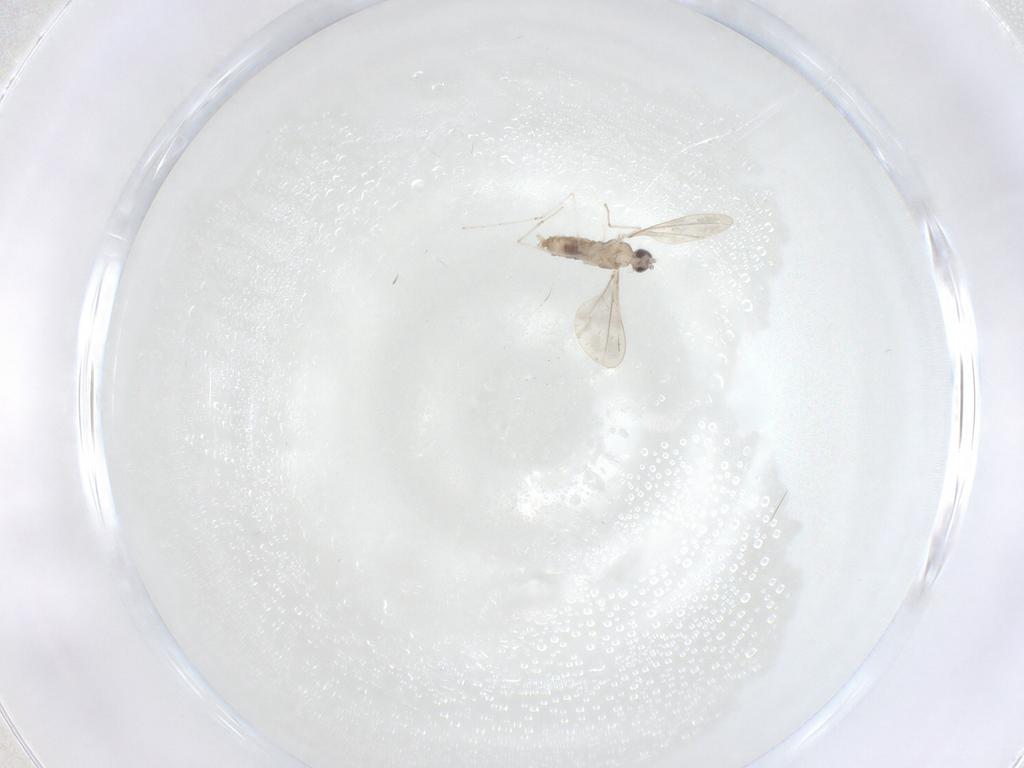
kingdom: Animalia
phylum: Arthropoda
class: Insecta
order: Diptera
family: Cecidomyiidae
